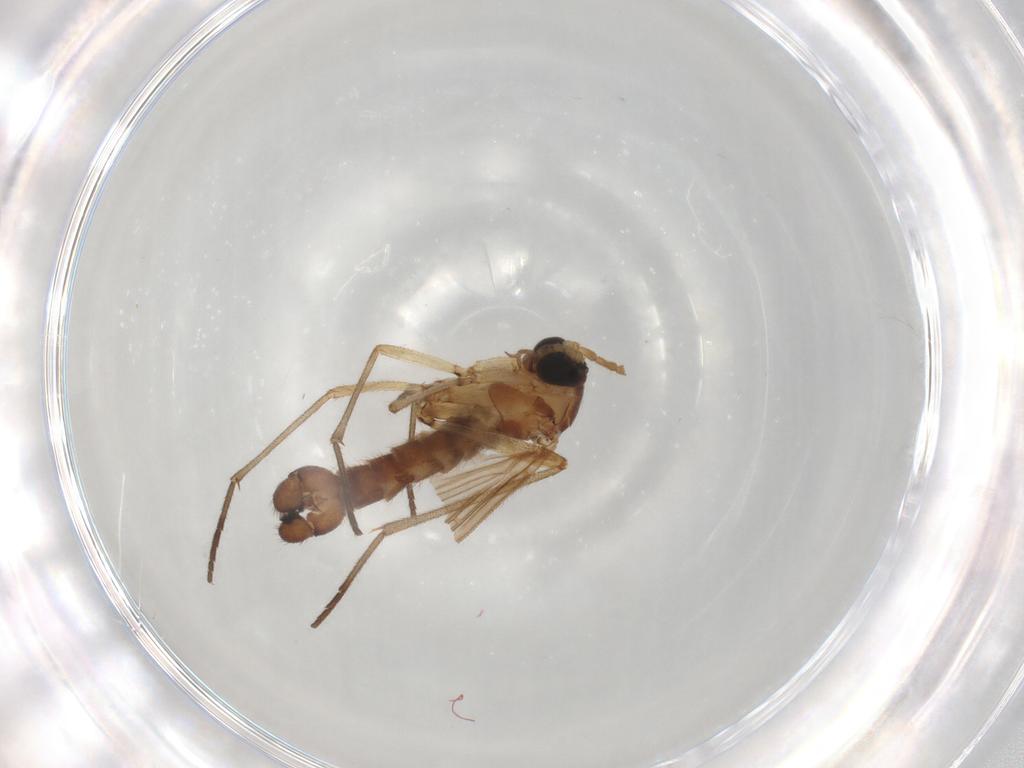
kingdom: Animalia
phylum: Arthropoda
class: Insecta
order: Diptera
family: Sciaridae
